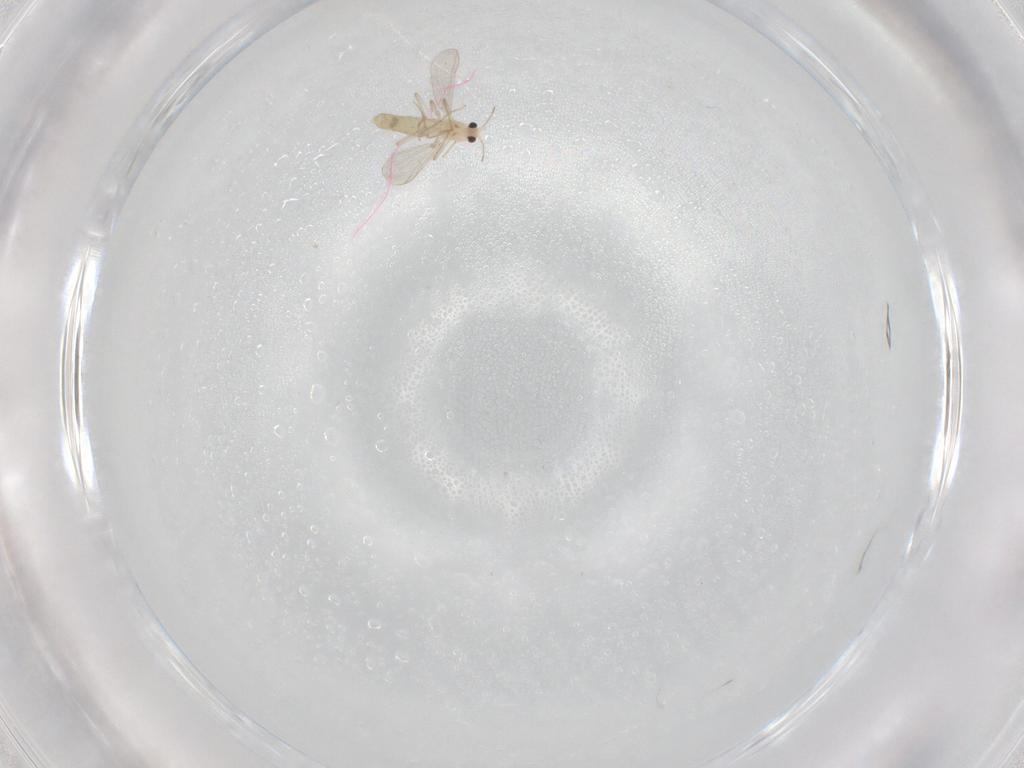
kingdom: Animalia
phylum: Arthropoda
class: Insecta
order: Diptera
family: Chironomidae
